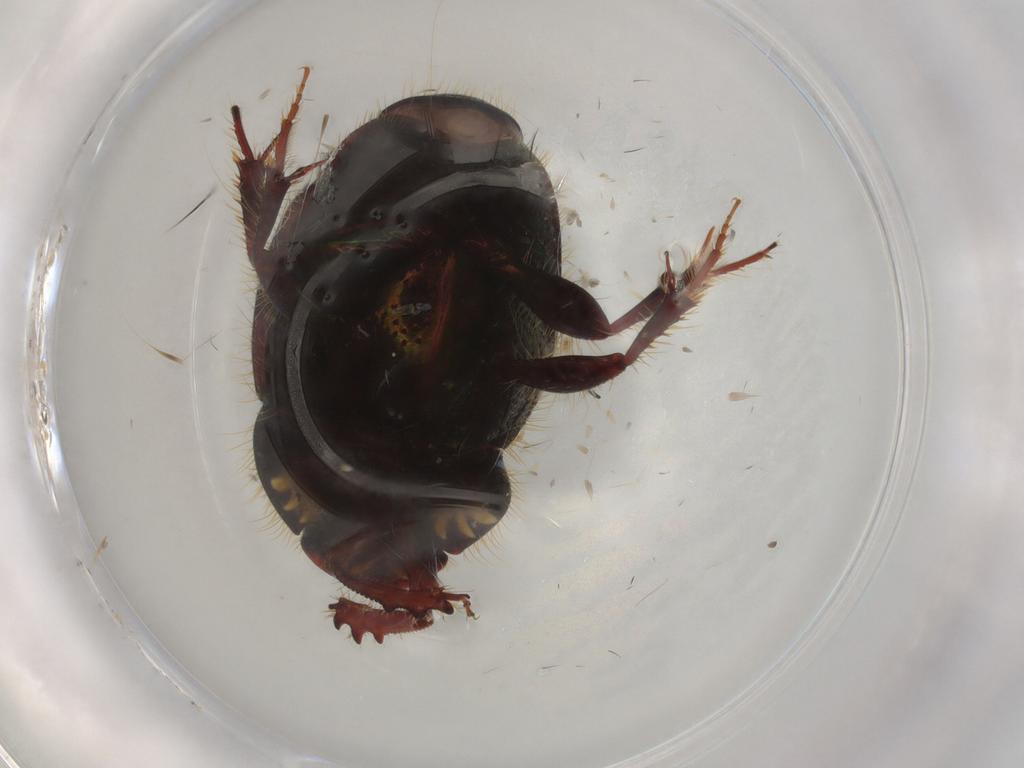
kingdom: Animalia
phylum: Arthropoda
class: Insecta
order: Coleoptera
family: Scarabaeidae
